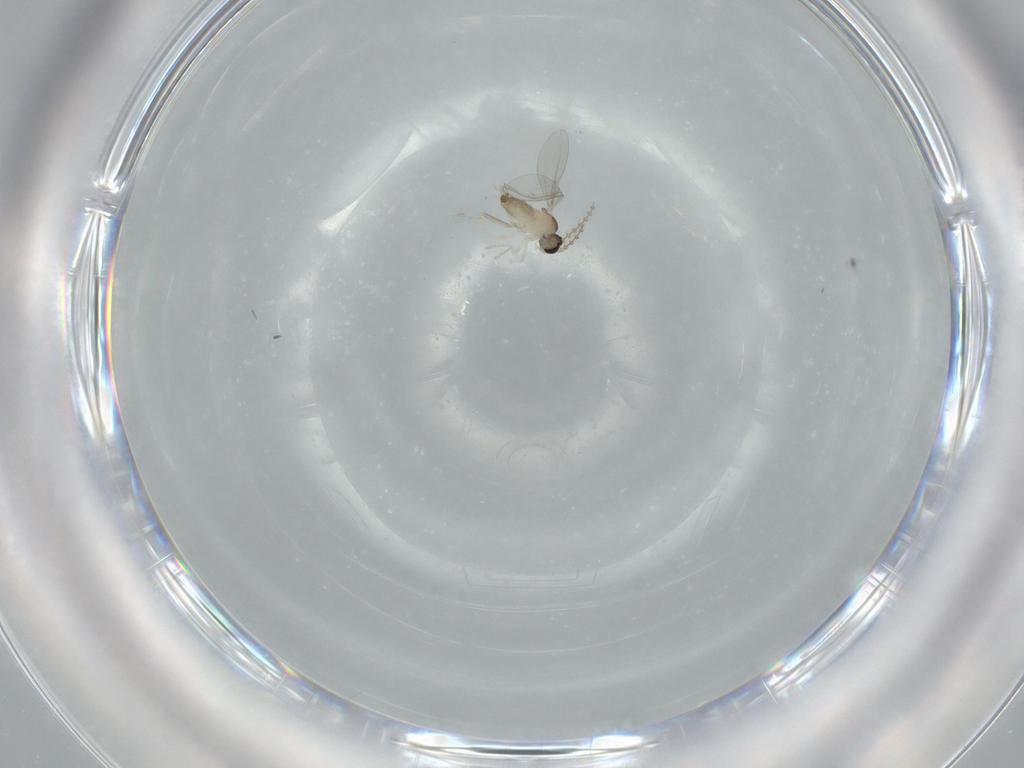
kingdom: Animalia
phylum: Arthropoda
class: Insecta
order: Diptera
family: Cecidomyiidae
